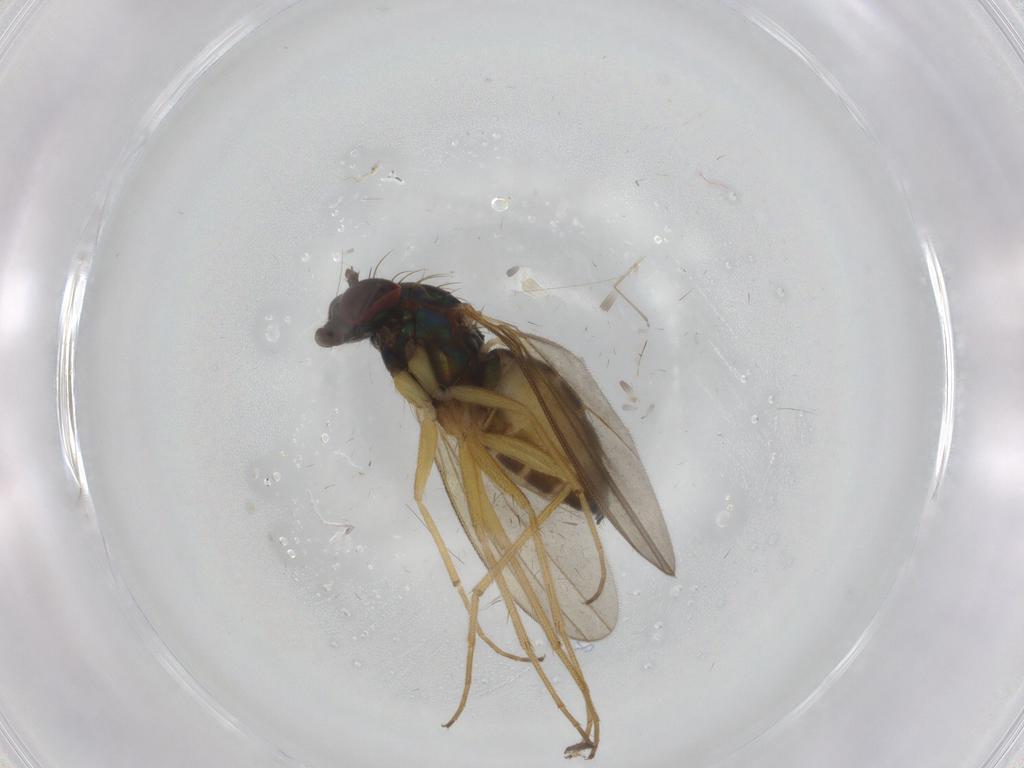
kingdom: Animalia
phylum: Arthropoda
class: Insecta
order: Diptera
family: Dolichopodidae
